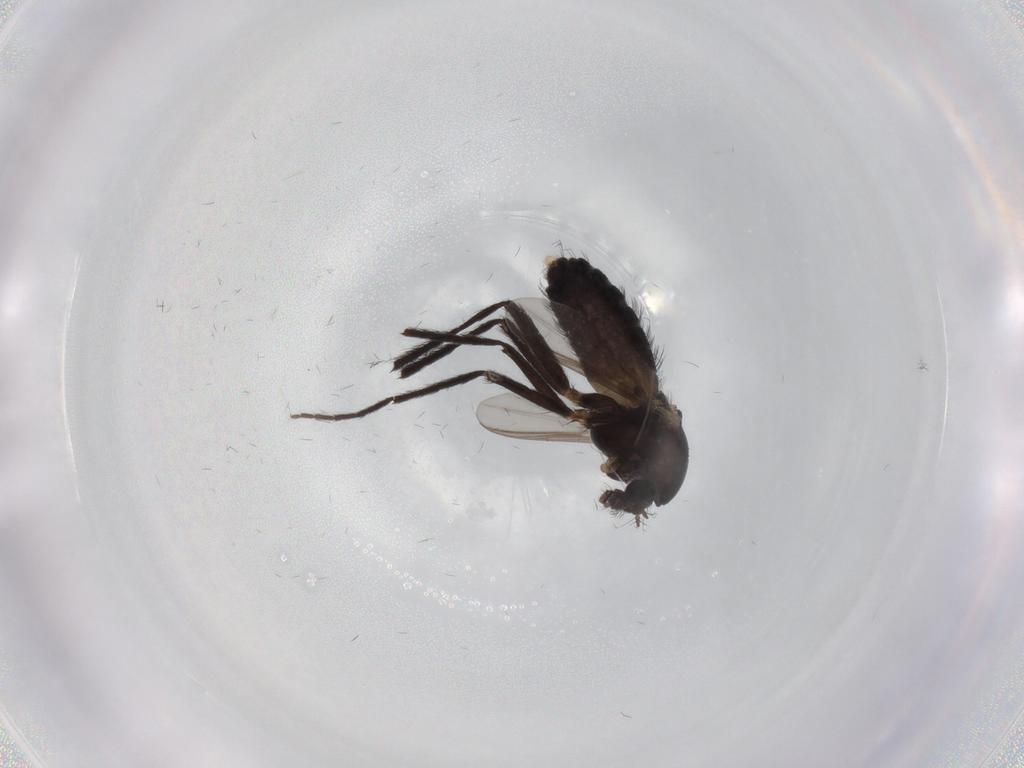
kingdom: Animalia
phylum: Arthropoda
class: Insecta
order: Diptera
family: Chironomidae
